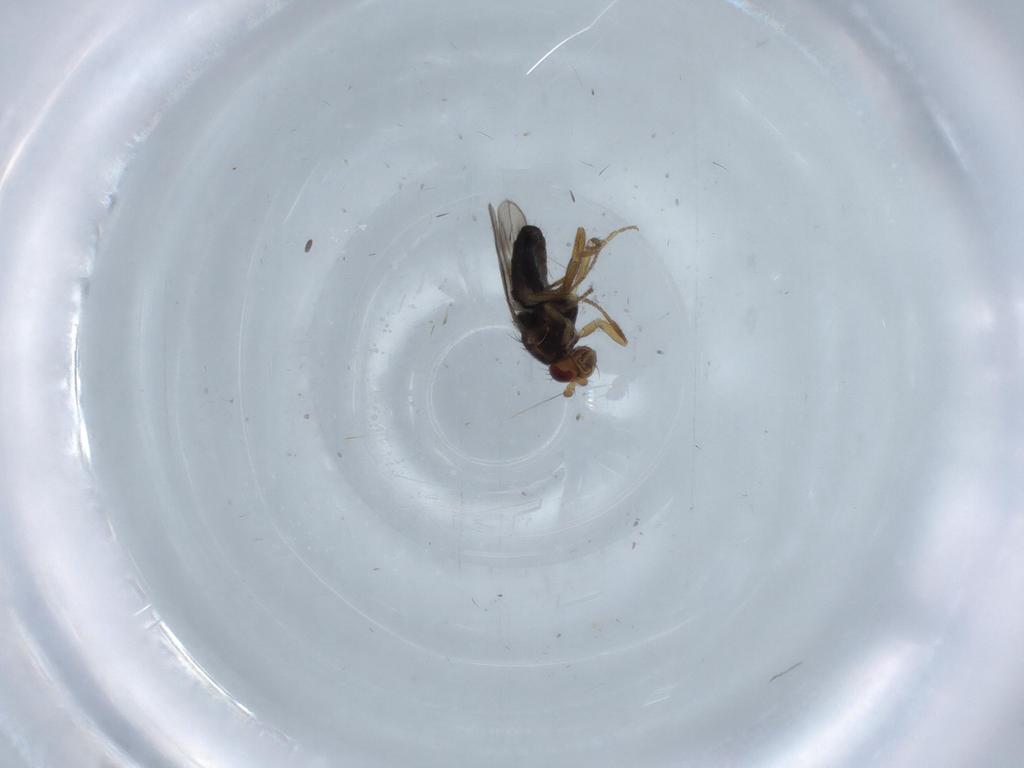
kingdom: Animalia
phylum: Arthropoda
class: Insecta
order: Diptera
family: Sphaeroceridae
